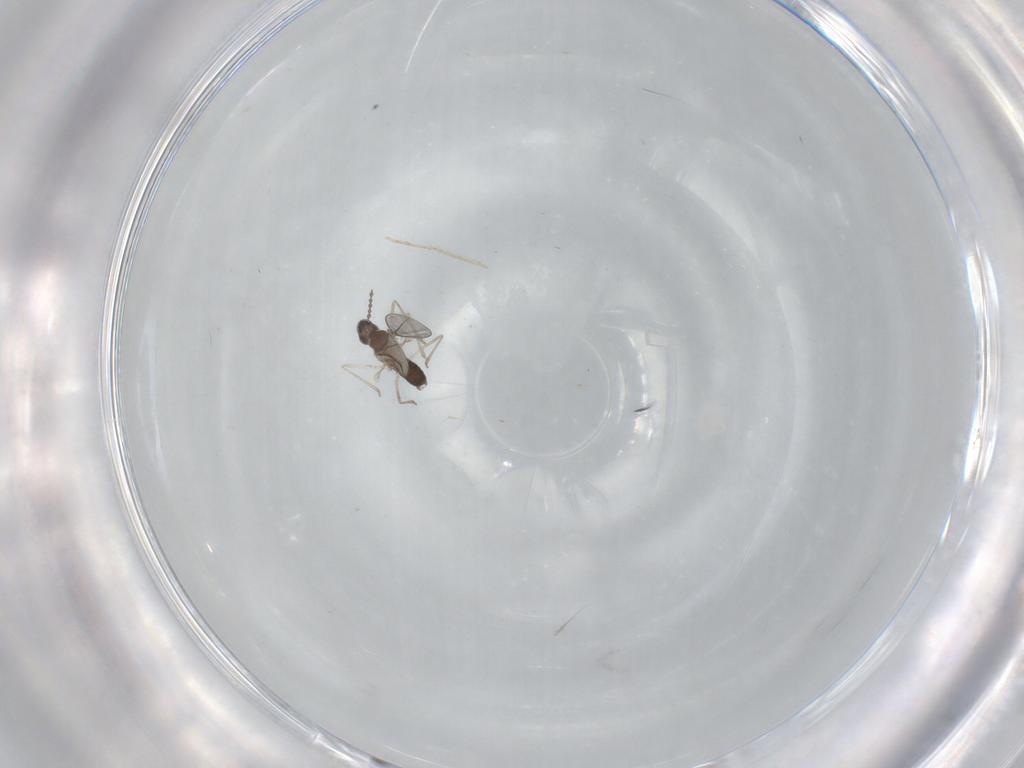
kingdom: Animalia
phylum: Arthropoda
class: Insecta
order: Diptera
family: Cecidomyiidae
